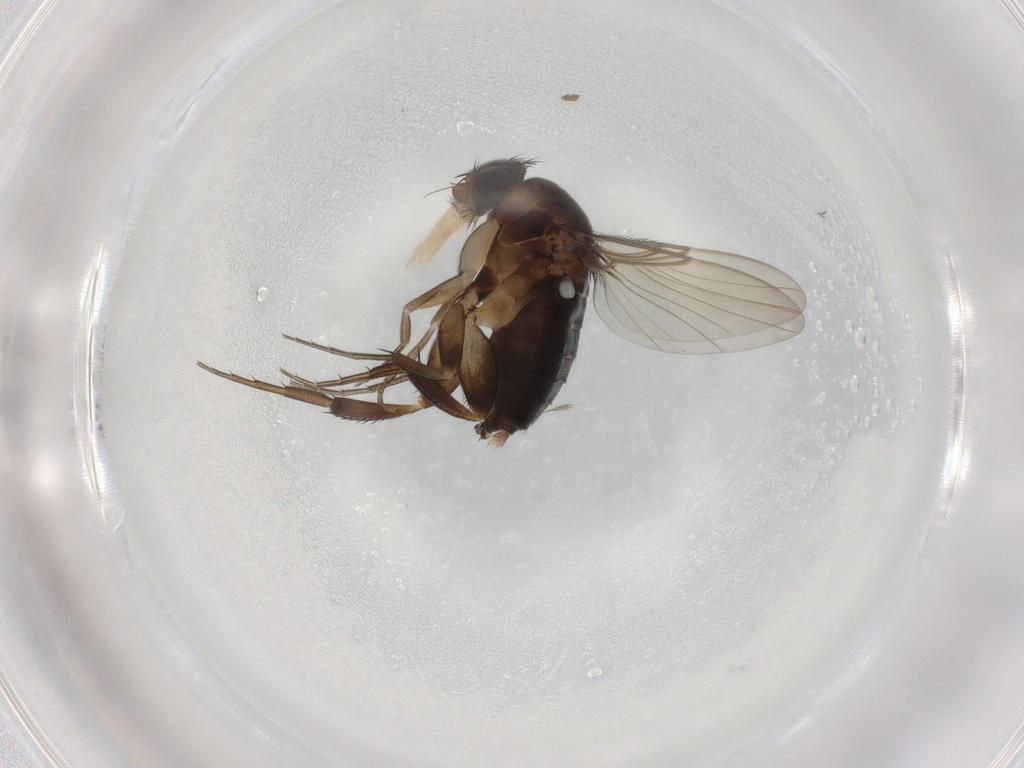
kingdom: Animalia
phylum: Arthropoda
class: Insecta
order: Diptera
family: Phoridae
